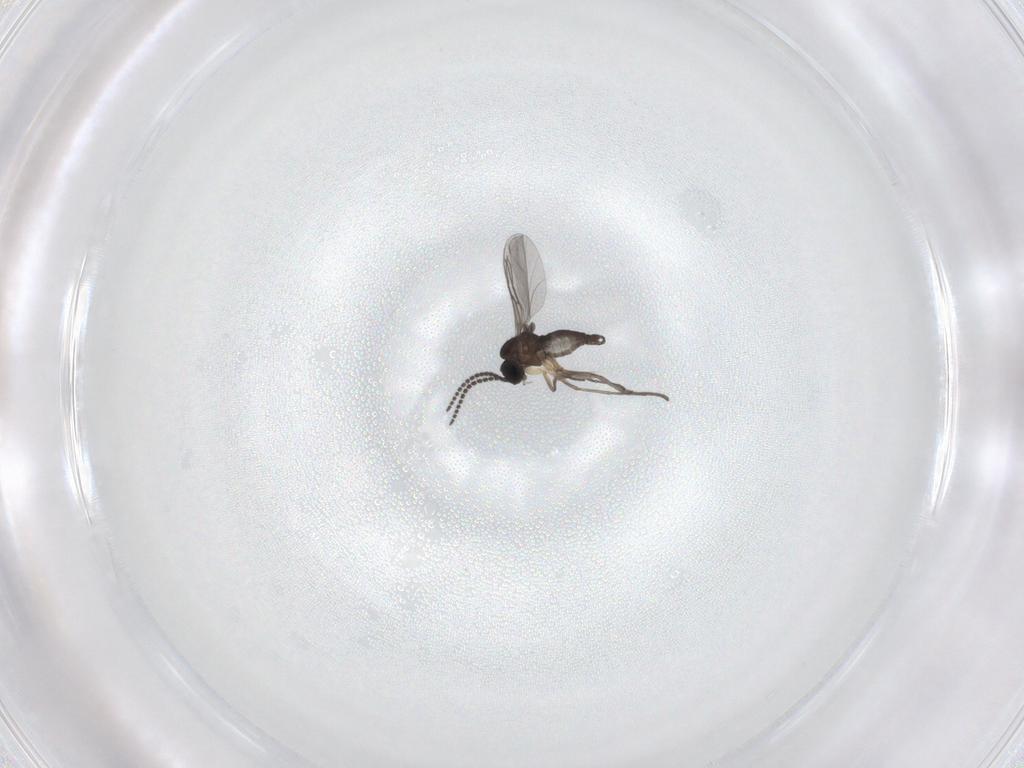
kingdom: Animalia
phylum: Arthropoda
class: Insecta
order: Diptera
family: Sciaridae
